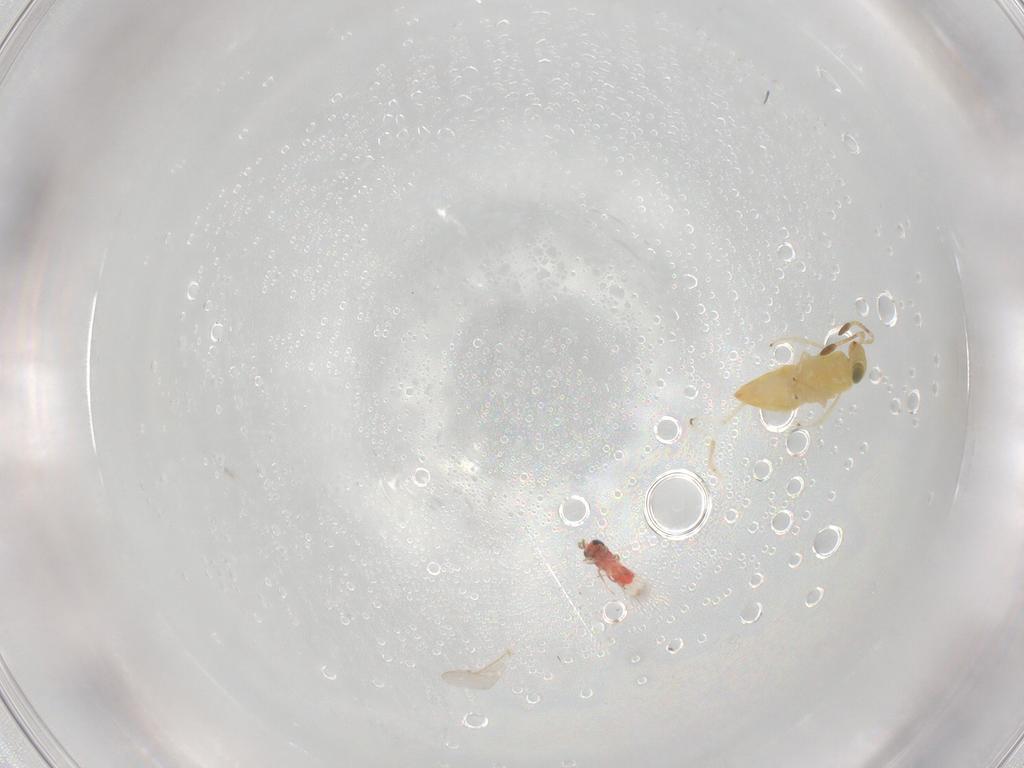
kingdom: Animalia
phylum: Arthropoda
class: Insecta
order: Hymenoptera
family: Trichogrammatidae
